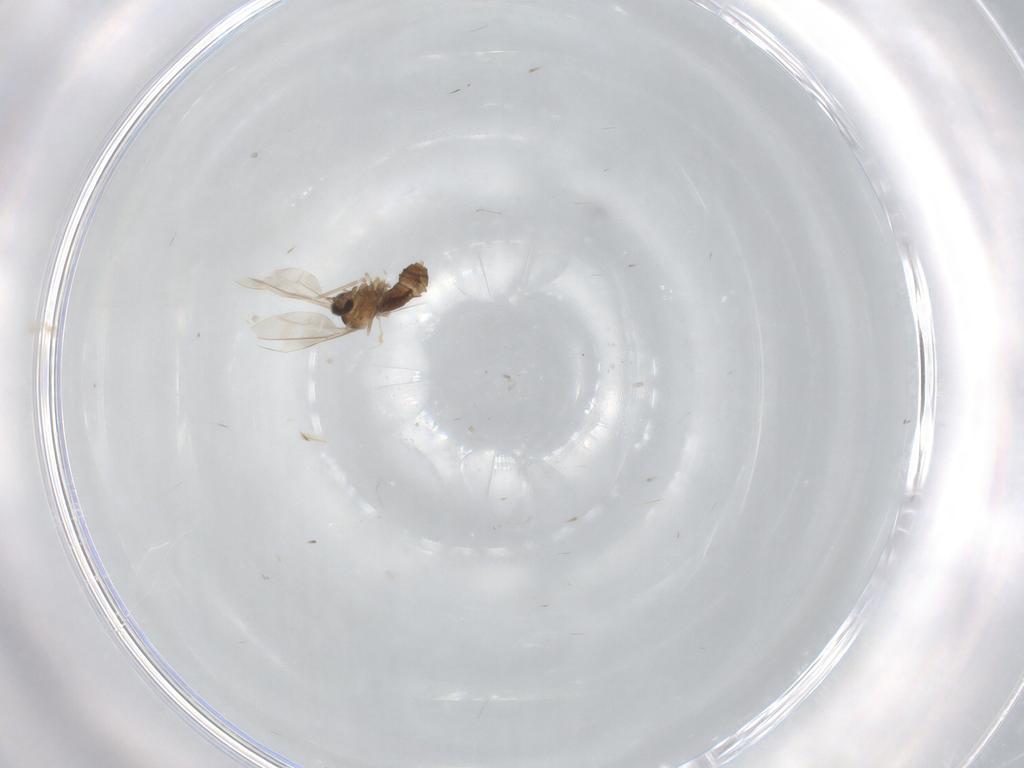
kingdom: Animalia
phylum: Arthropoda
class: Insecta
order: Diptera
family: Cecidomyiidae
